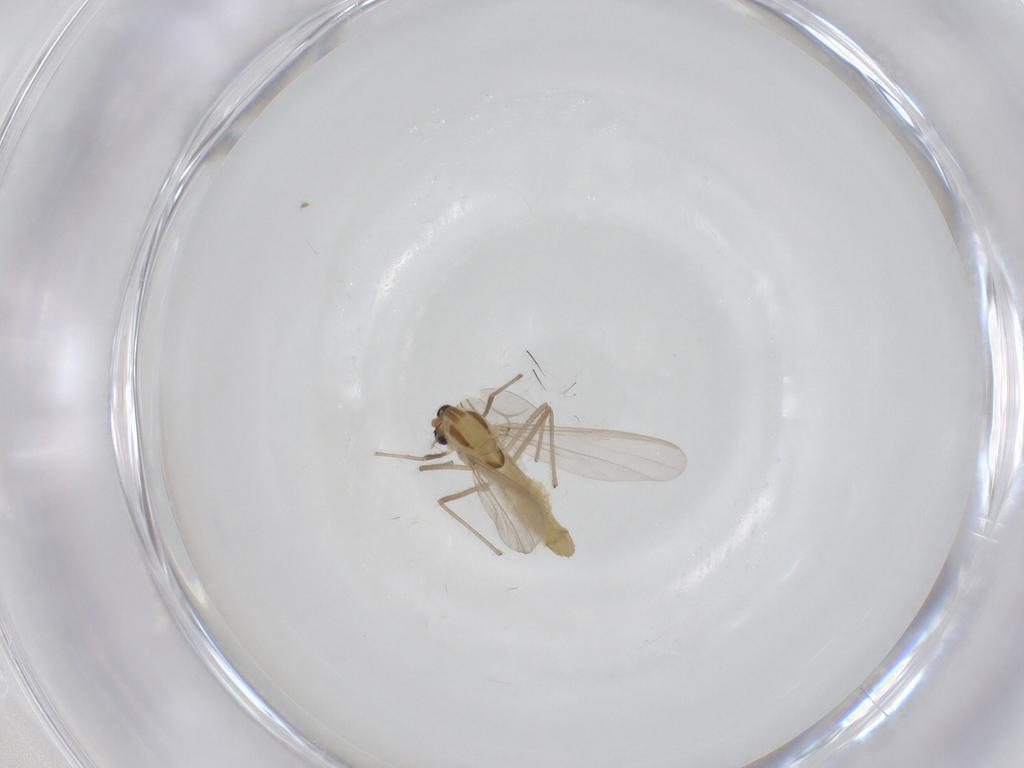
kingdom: Animalia
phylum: Arthropoda
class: Insecta
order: Diptera
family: Chironomidae
